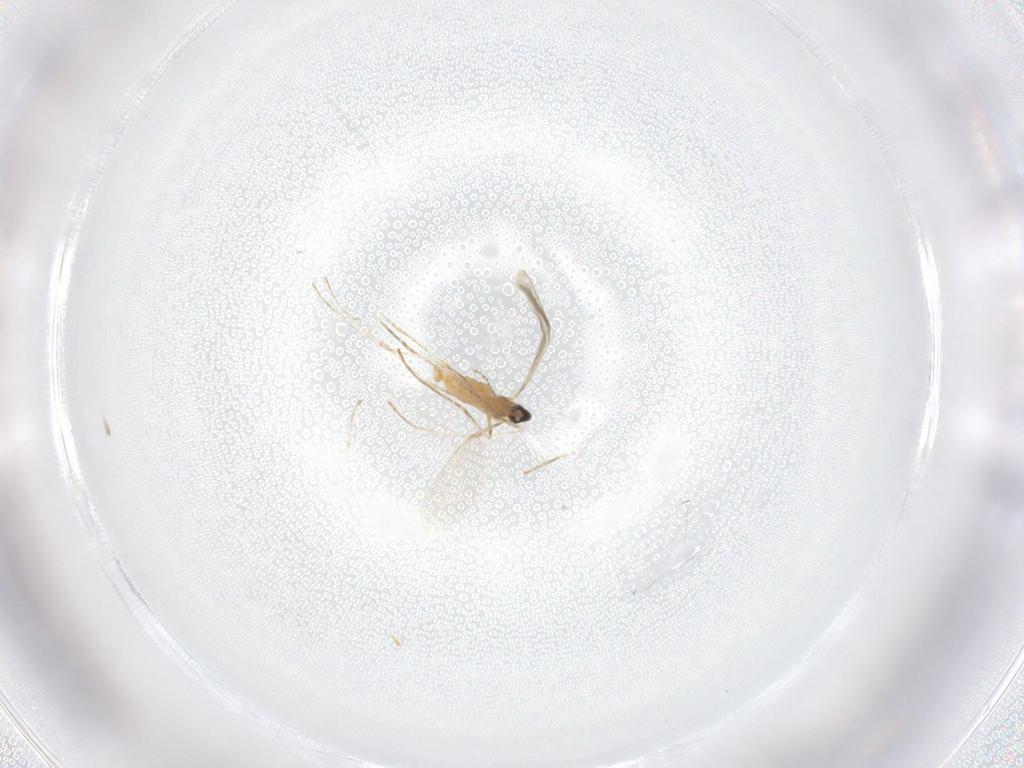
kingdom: Animalia
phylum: Arthropoda
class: Insecta
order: Diptera
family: Cecidomyiidae
